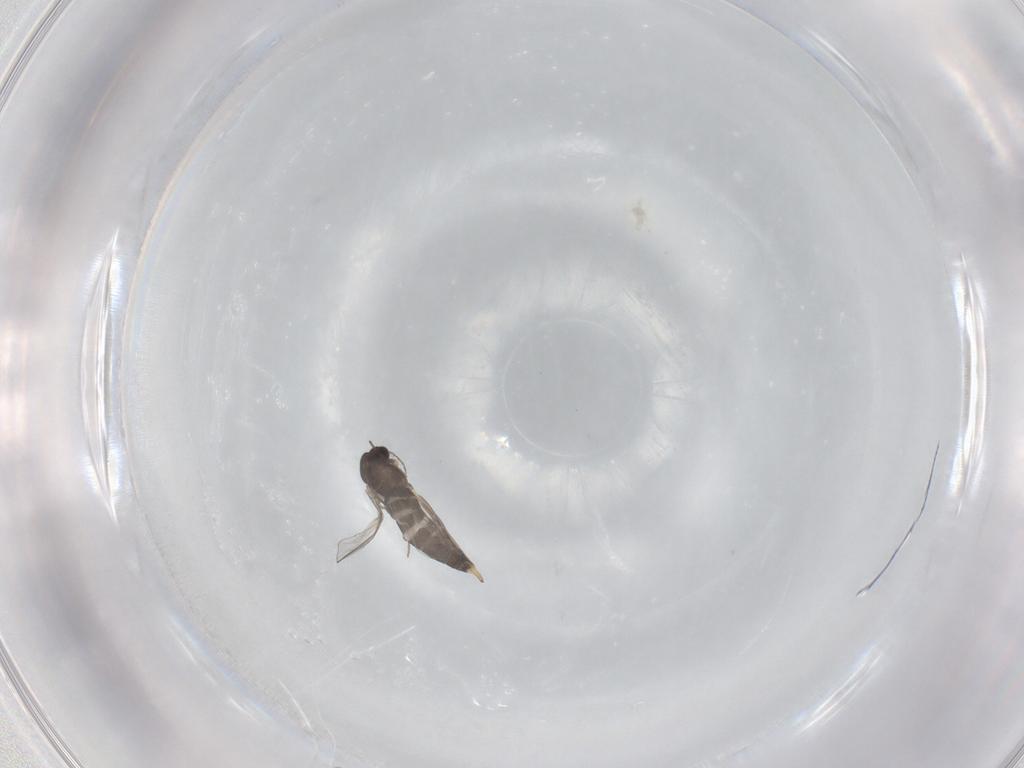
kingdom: Animalia
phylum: Arthropoda
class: Insecta
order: Diptera
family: Chironomidae
